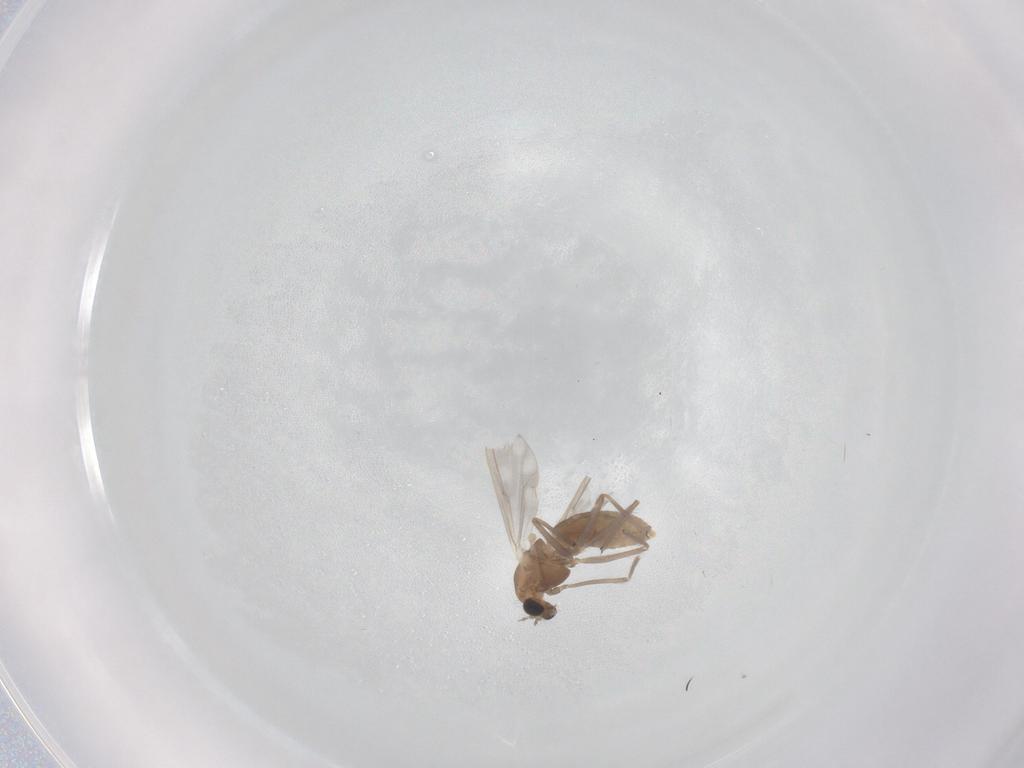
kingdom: Animalia
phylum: Arthropoda
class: Insecta
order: Diptera
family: Chironomidae
